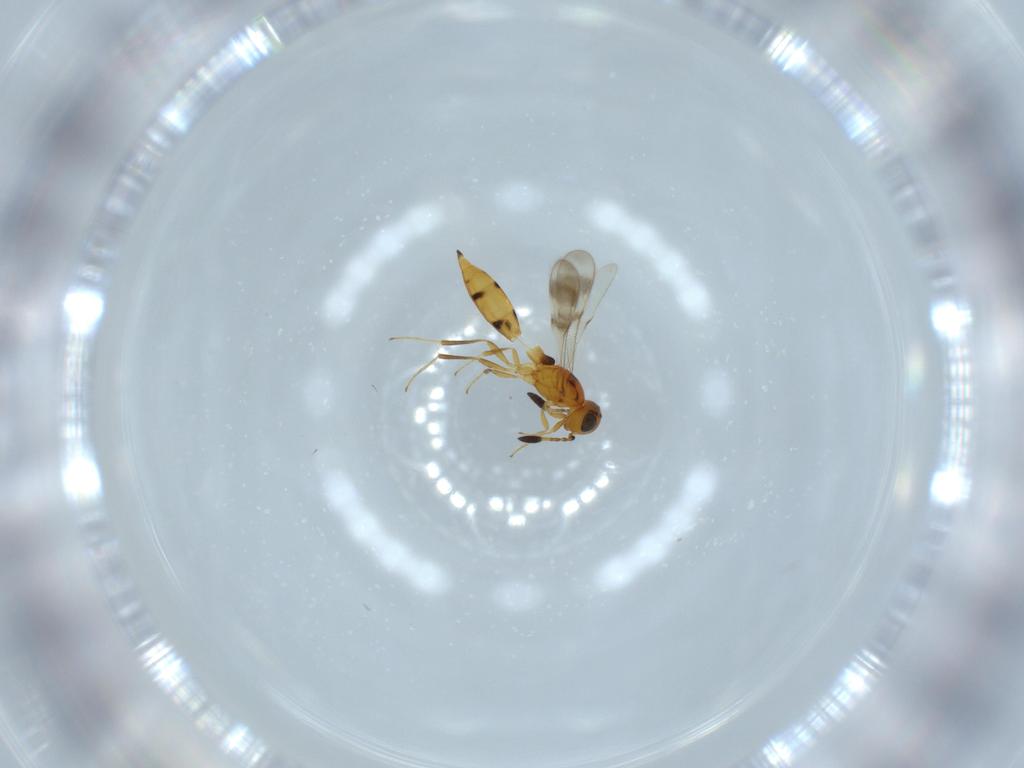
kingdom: Animalia
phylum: Arthropoda
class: Insecta
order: Hymenoptera
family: Scelionidae
